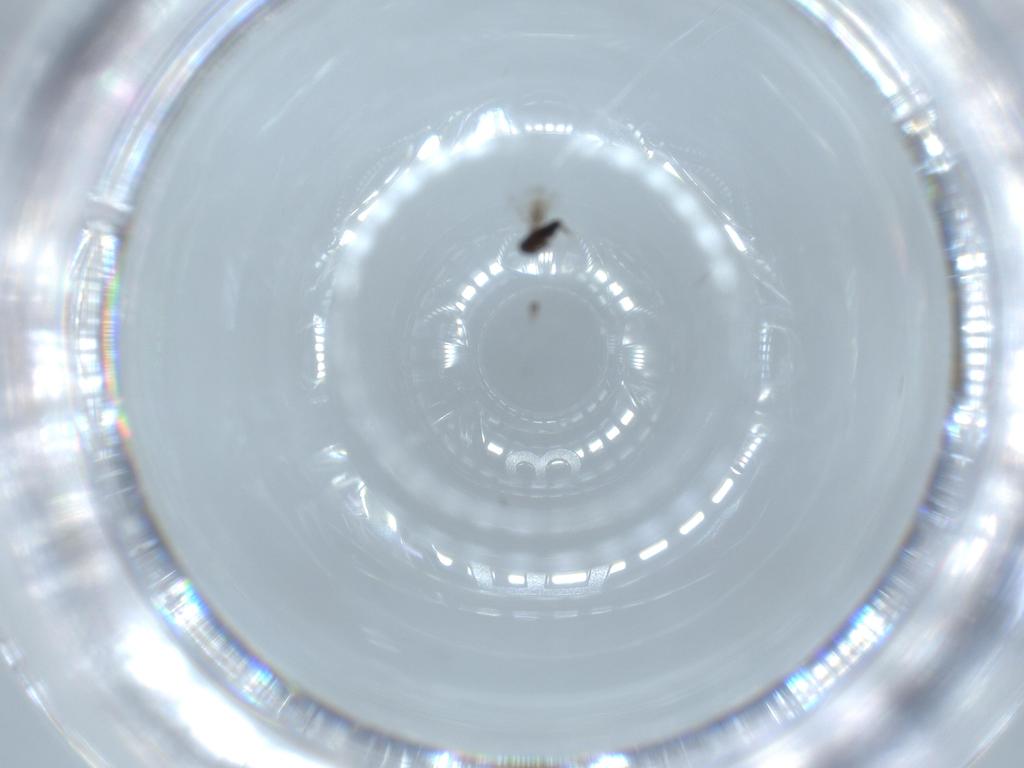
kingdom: Animalia
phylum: Arthropoda
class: Insecta
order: Hymenoptera
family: Signiphoridae
